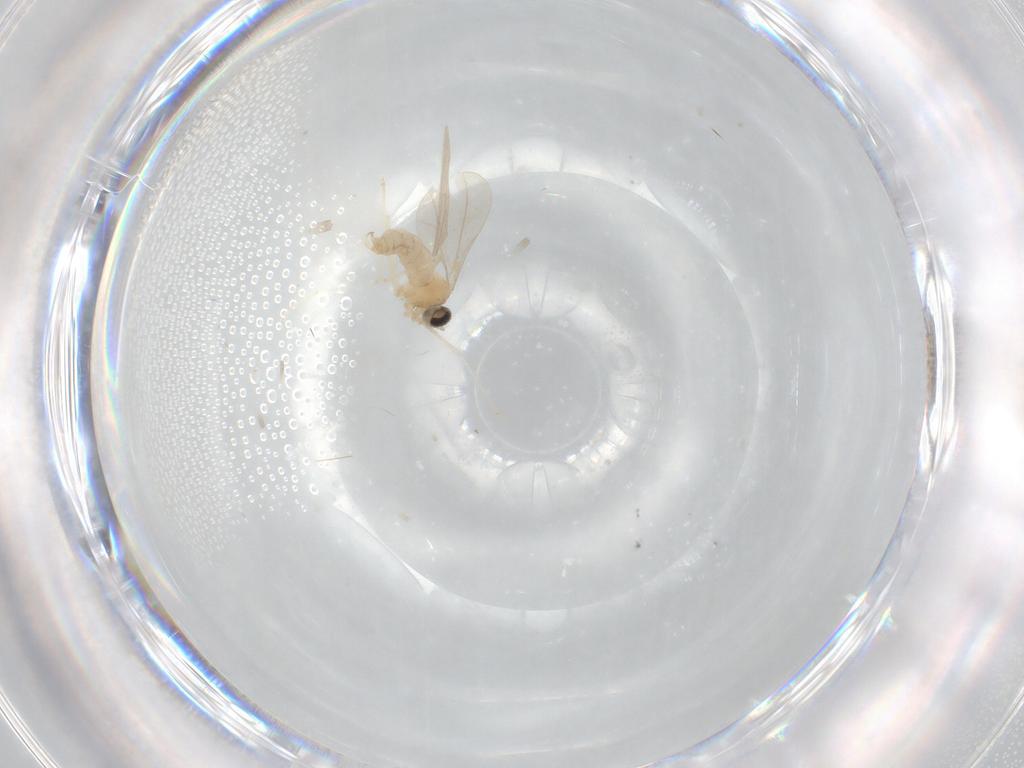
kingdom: Animalia
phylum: Arthropoda
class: Insecta
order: Diptera
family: Cecidomyiidae
